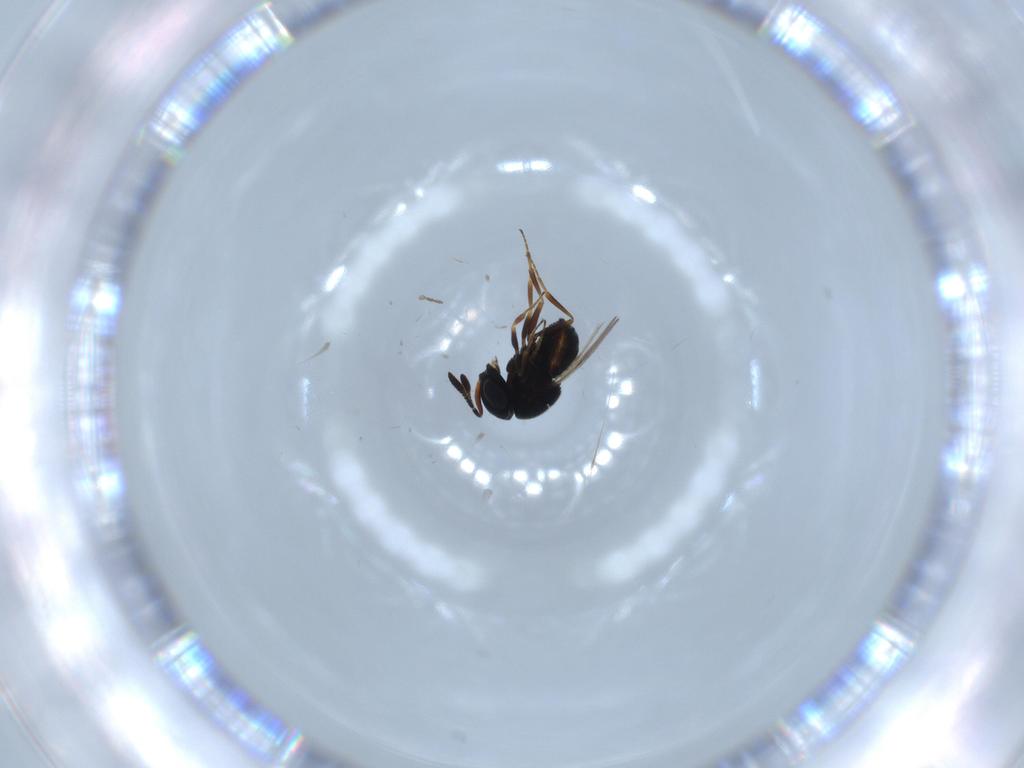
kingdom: Animalia
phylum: Arthropoda
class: Insecta
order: Hymenoptera
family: Scelionidae
